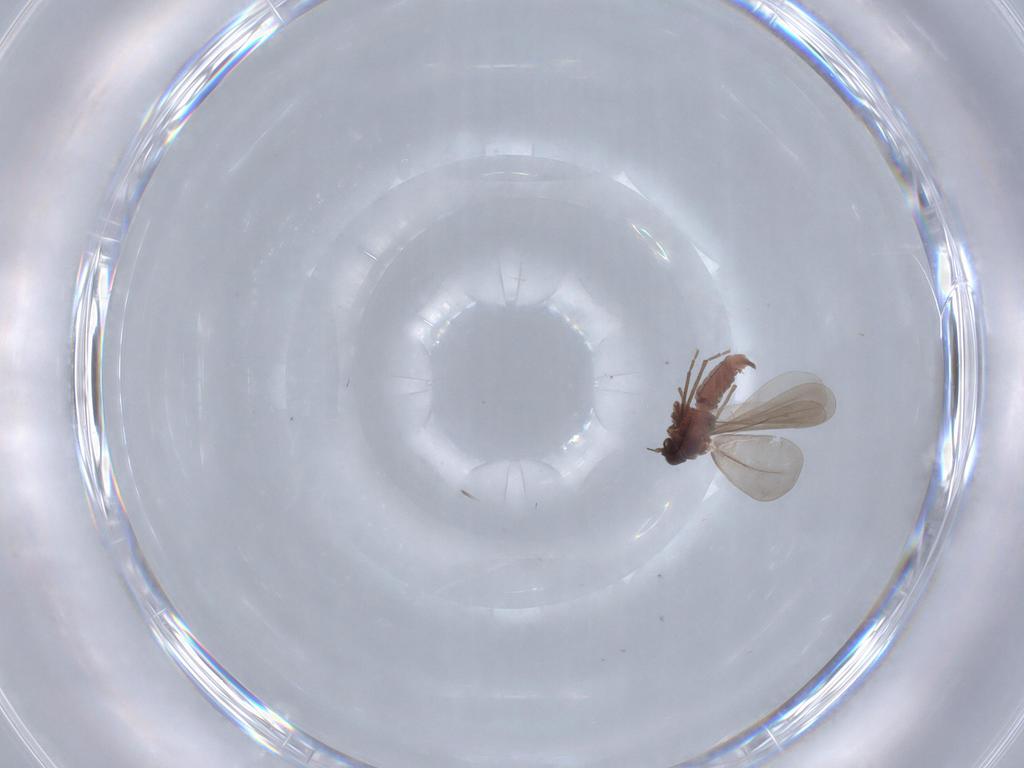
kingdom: Animalia
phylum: Arthropoda
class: Insecta
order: Hemiptera
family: Aleyrodidae
